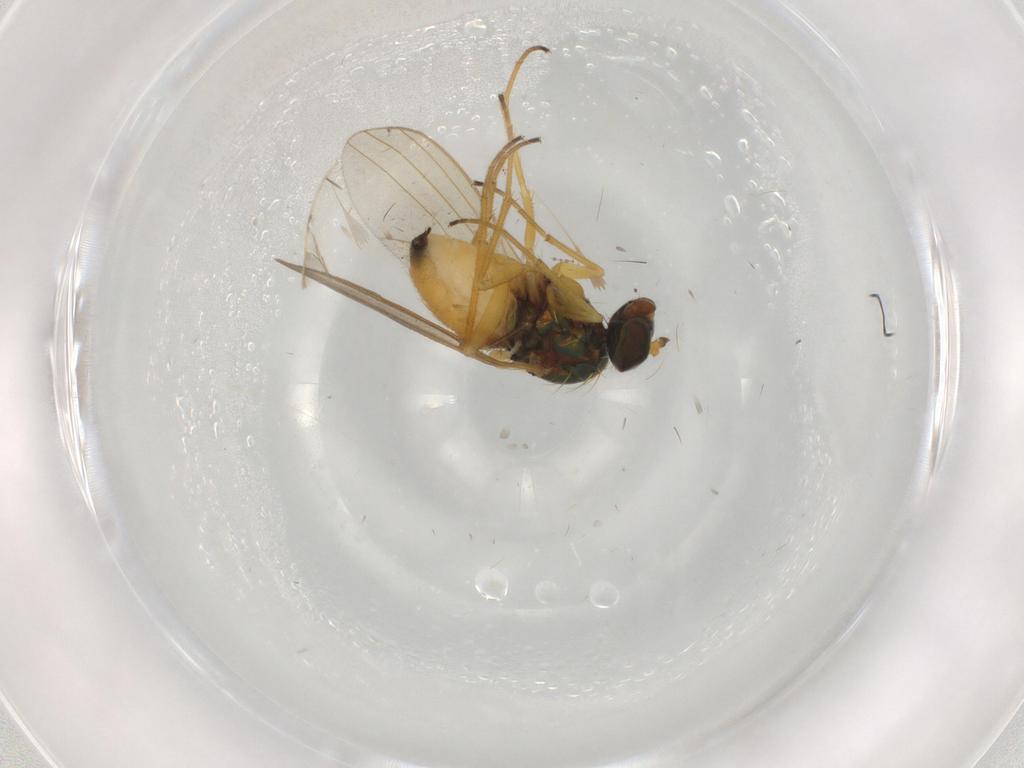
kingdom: Animalia
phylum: Arthropoda
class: Insecta
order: Diptera
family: Dolichopodidae
